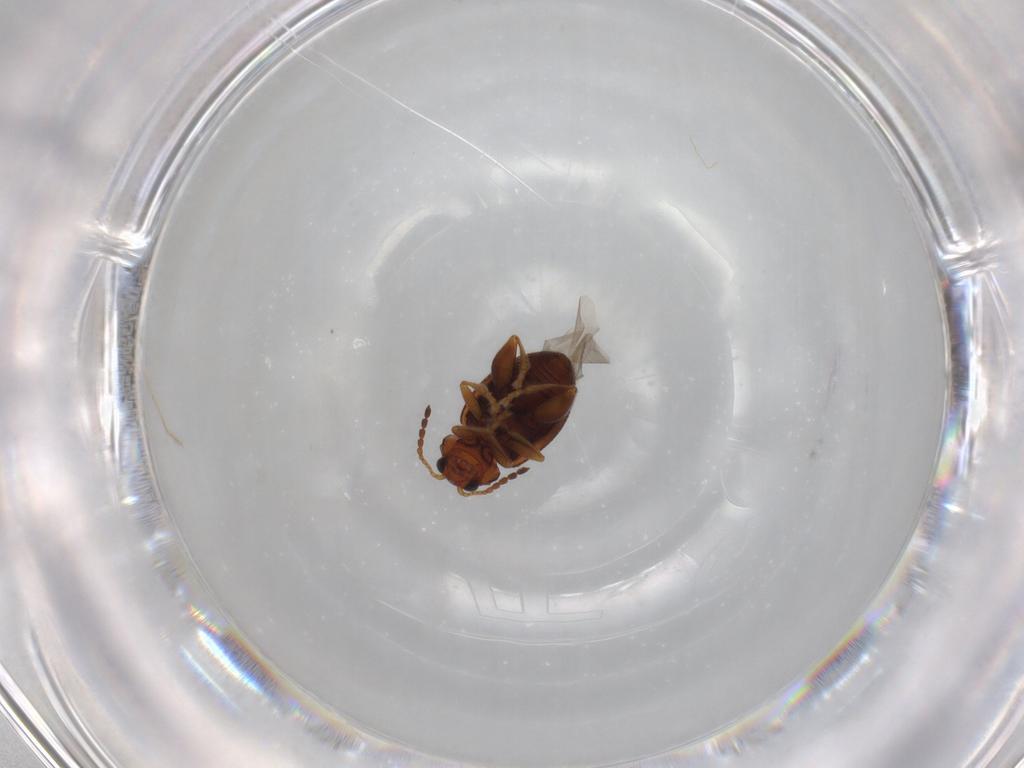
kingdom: Animalia
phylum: Arthropoda
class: Insecta
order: Coleoptera
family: Chrysomelidae
